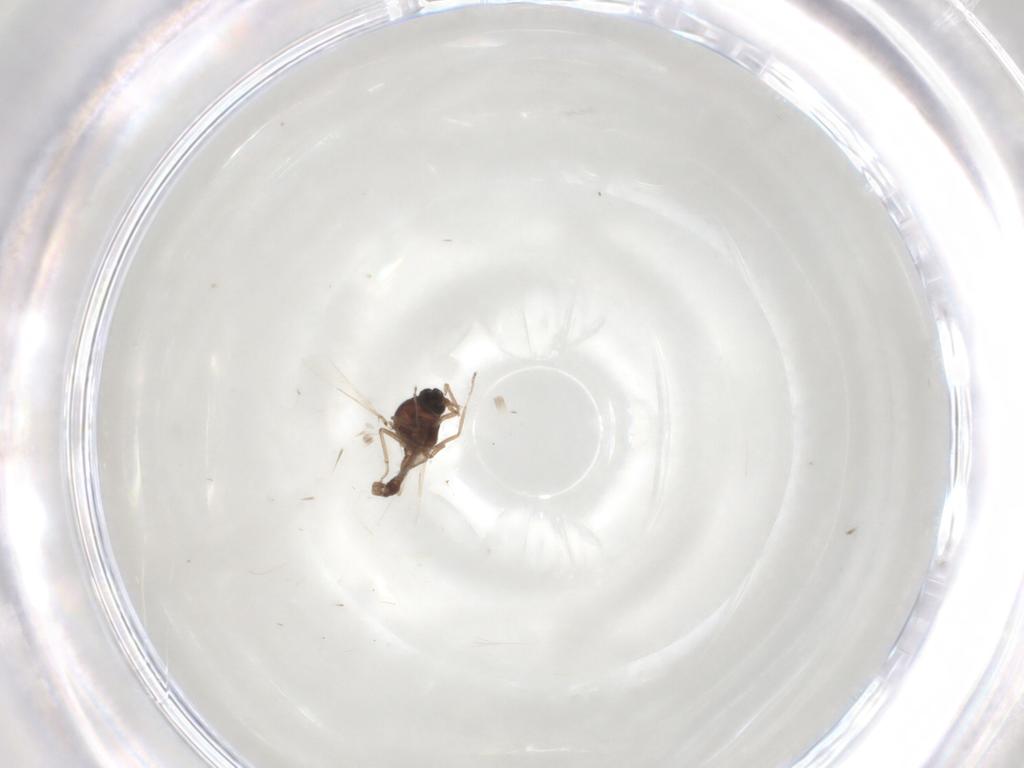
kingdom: Animalia
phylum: Arthropoda
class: Insecta
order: Diptera
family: Ceratopogonidae
